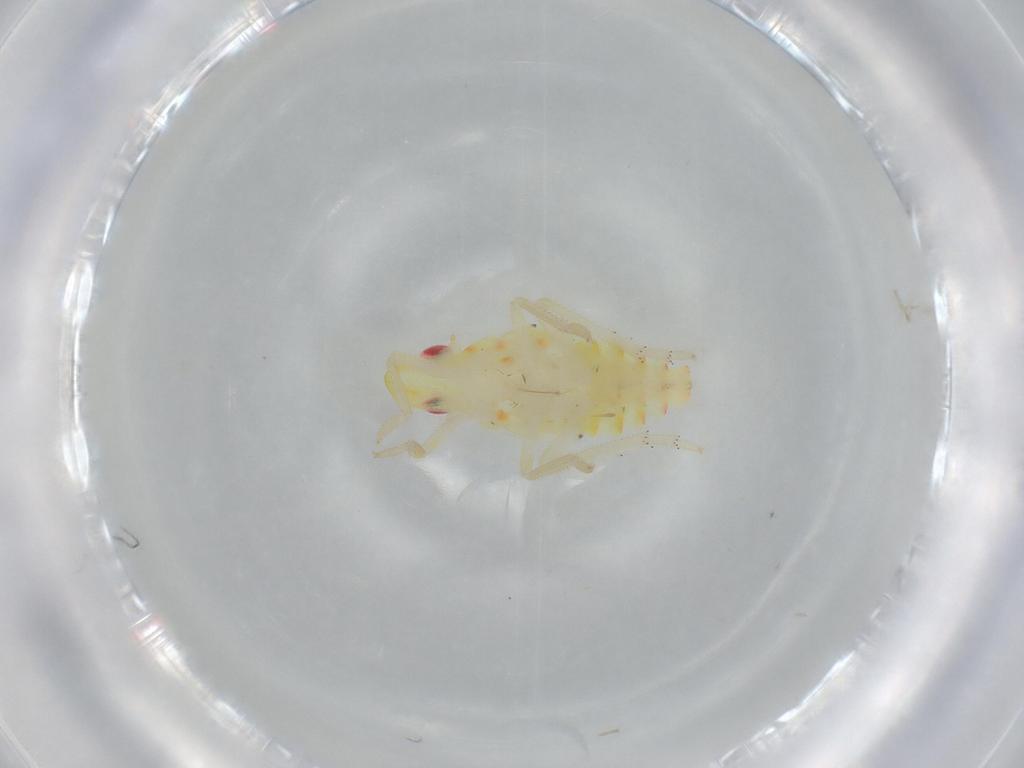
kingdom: Animalia
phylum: Arthropoda
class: Insecta
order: Hemiptera
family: Tropiduchidae
